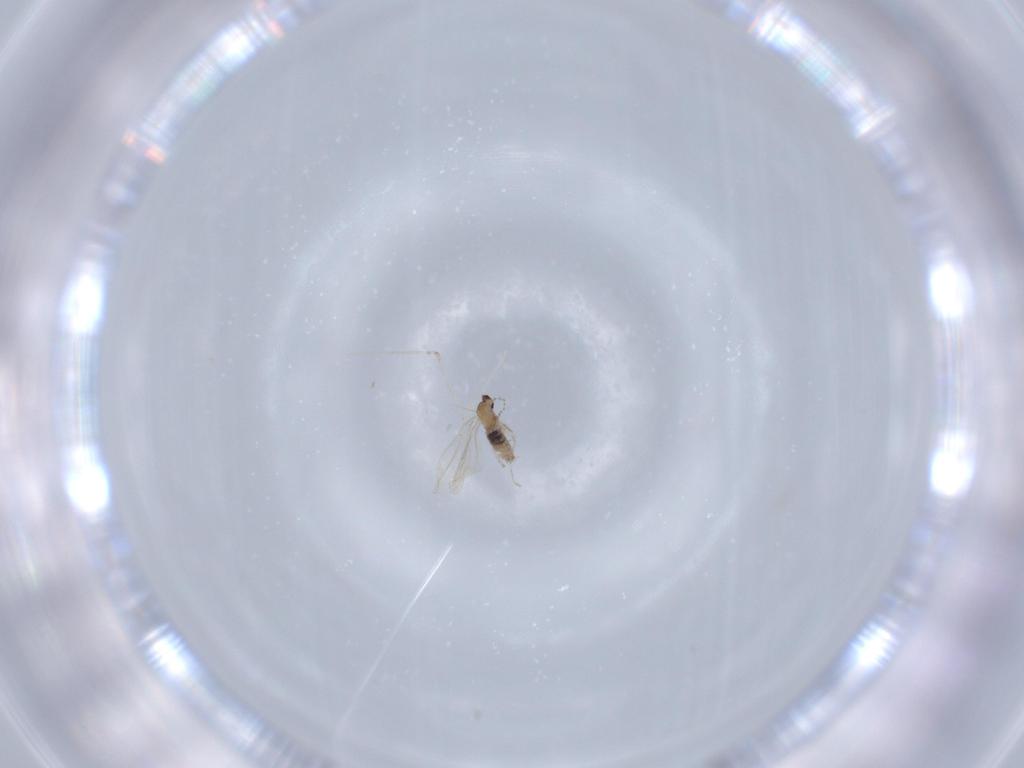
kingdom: Animalia
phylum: Arthropoda
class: Insecta
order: Diptera
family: Cecidomyiidae
